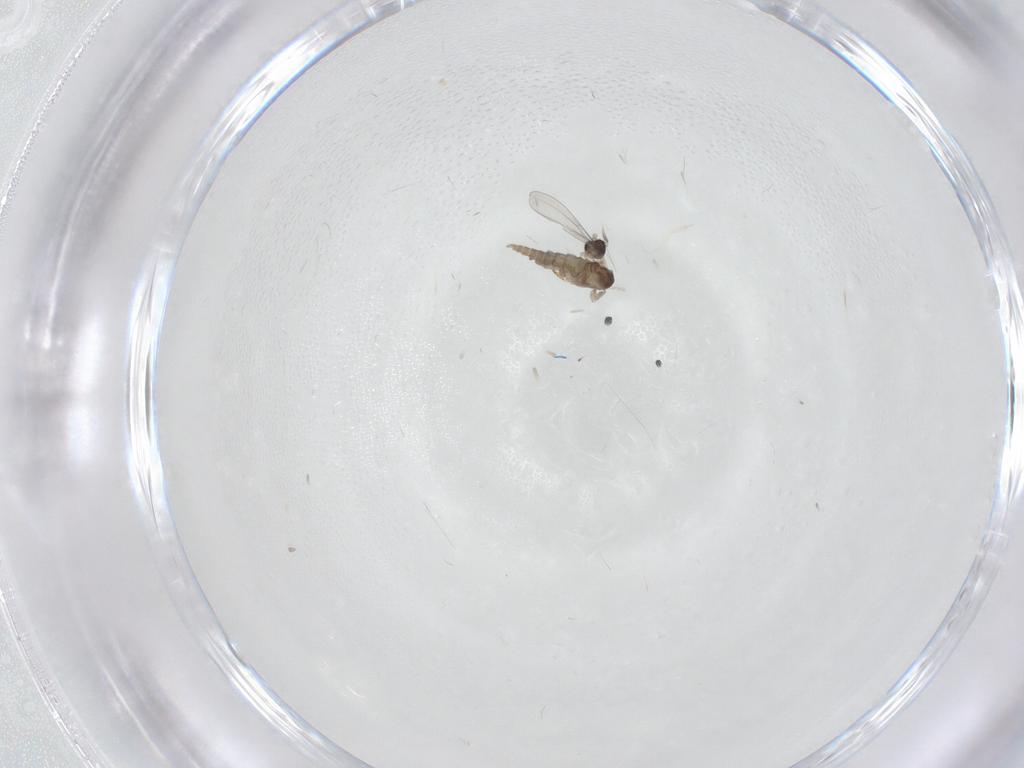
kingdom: Animalia
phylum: Arthropoda
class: Insecta
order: Diptera
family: Cecidomyiidae
